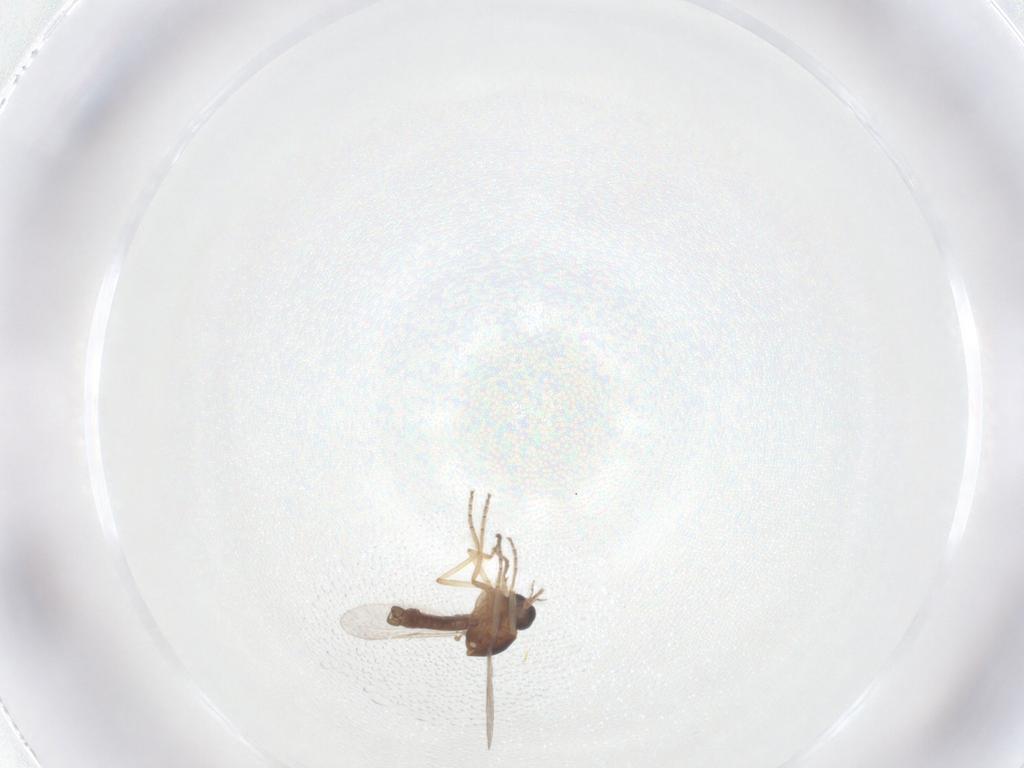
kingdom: Animalia
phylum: Arthropoda
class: Insecta
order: Diptera
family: Ceratopogonidae
